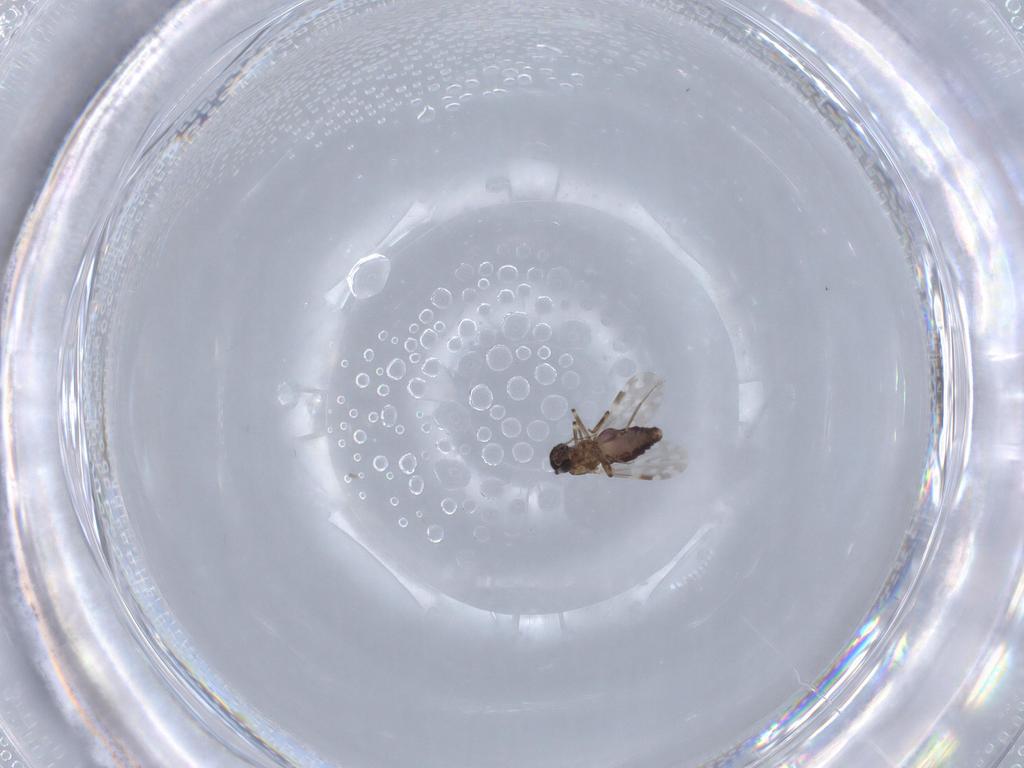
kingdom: Animalia
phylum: Arthropoda
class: Insecta
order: Diptera
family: Ceratopogonidae
